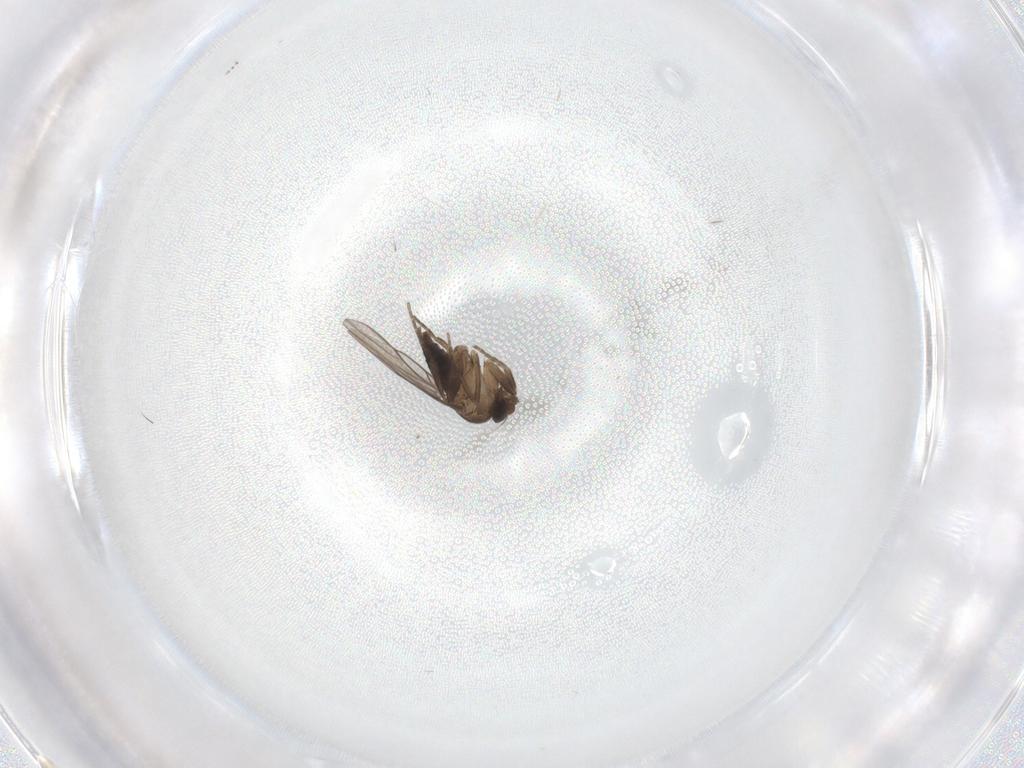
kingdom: Animalia
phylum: Arthropoda
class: Insecta
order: Diptera
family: Phoridae
